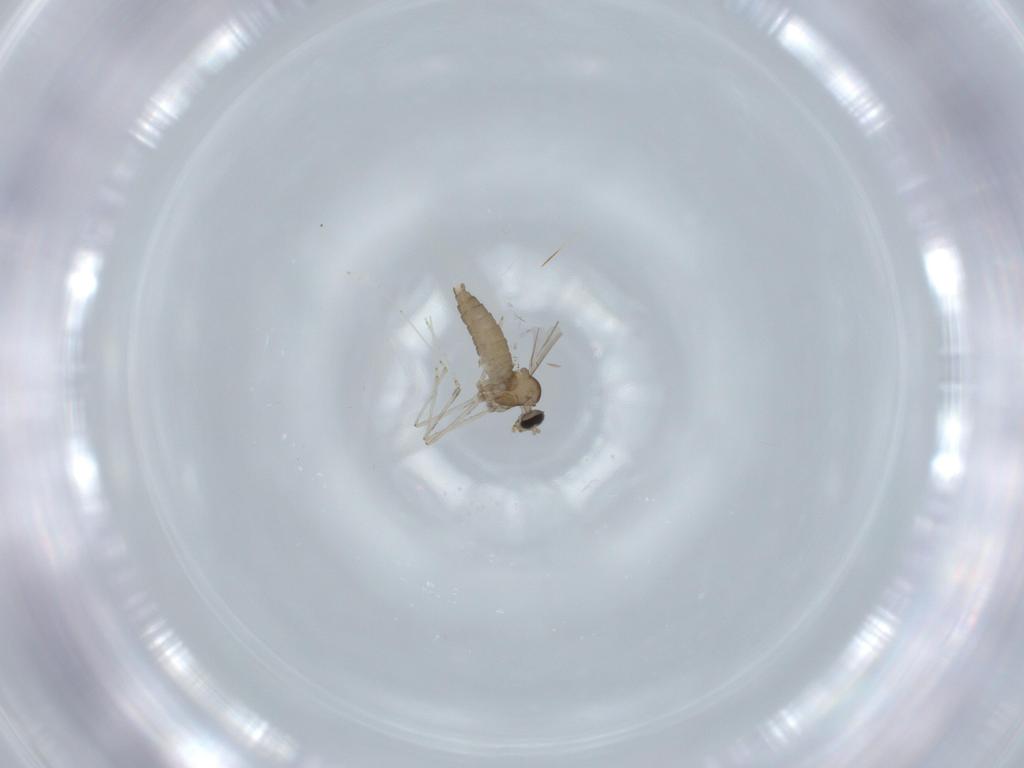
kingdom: Animalia
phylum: Arthropoda
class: Insecta
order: Diptera
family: Cecidomyiidae
